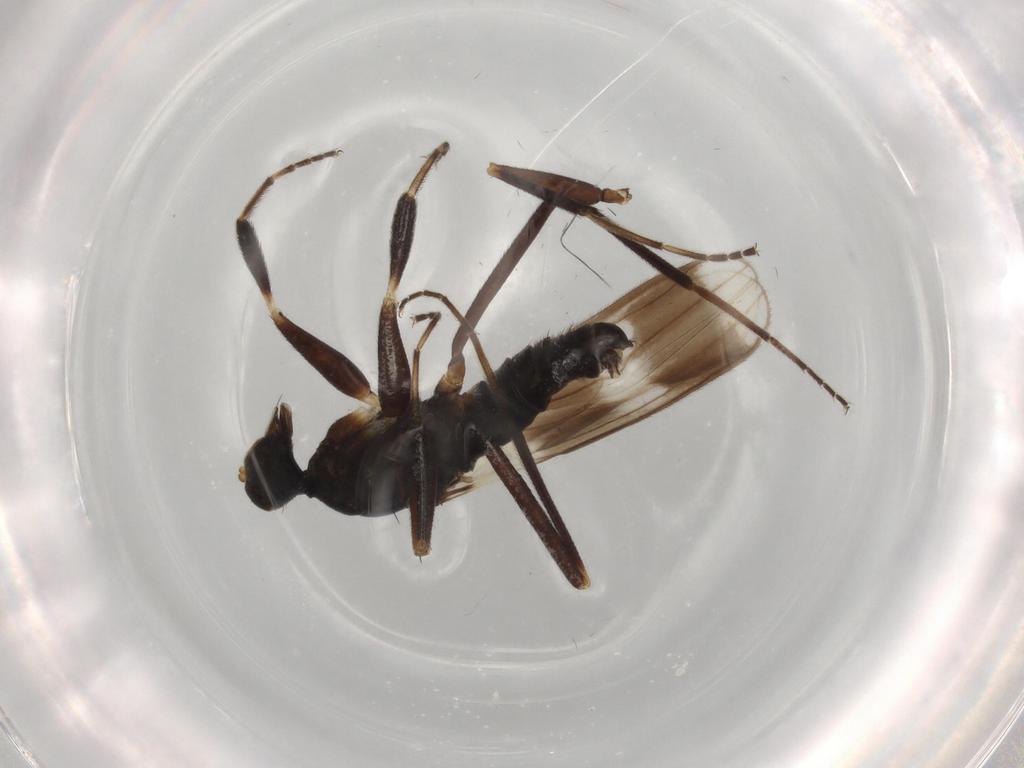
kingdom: Animalia
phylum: Arthropoda
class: Insecta
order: Diptera
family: Limoniidae
